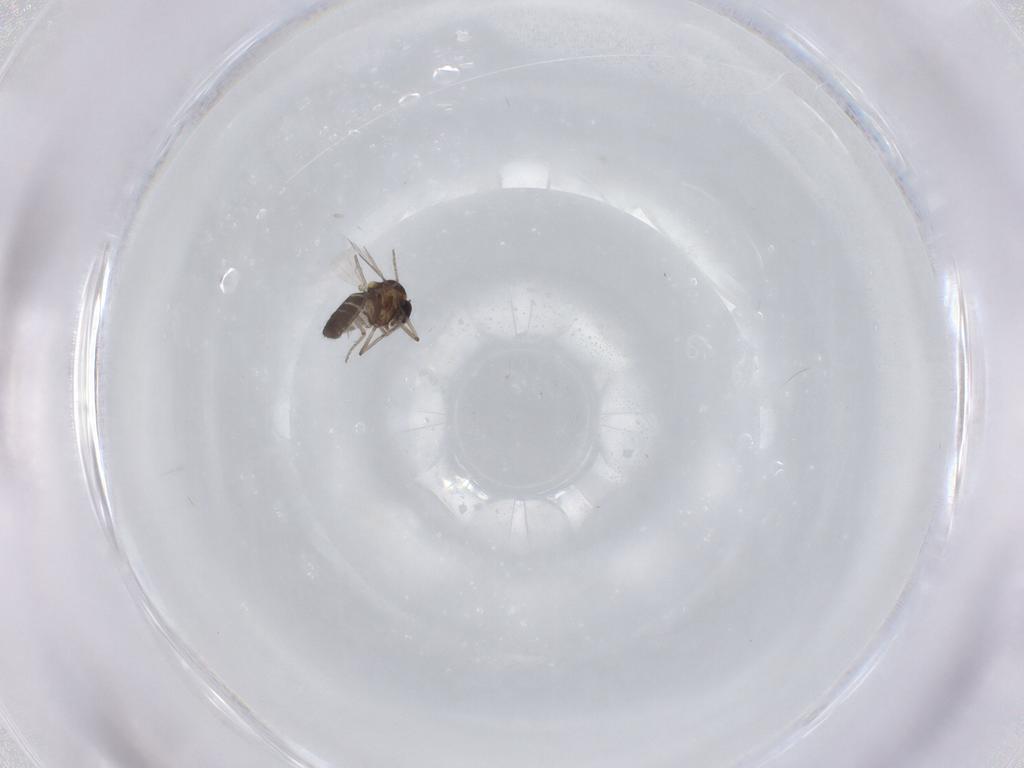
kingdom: Animalia
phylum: Arthropoda
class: Insecta
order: Diptera
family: Ceratopogonidae
